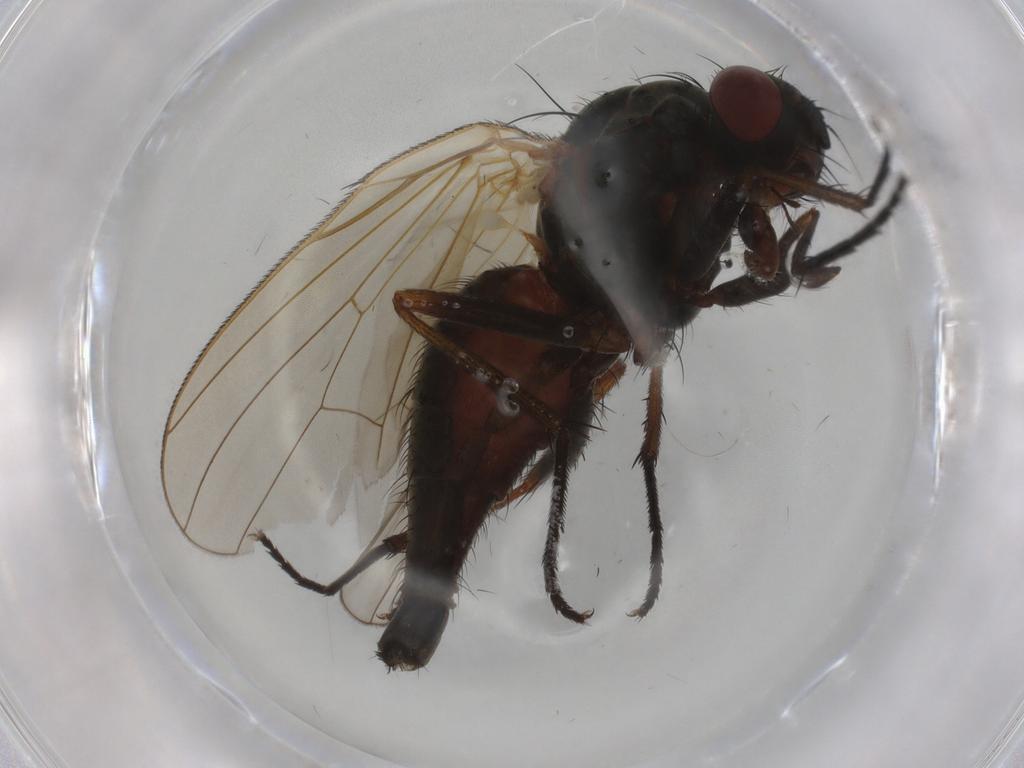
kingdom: Animalia
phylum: Arthropoda
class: Insecta
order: Diptera
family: Anthomyiidae
